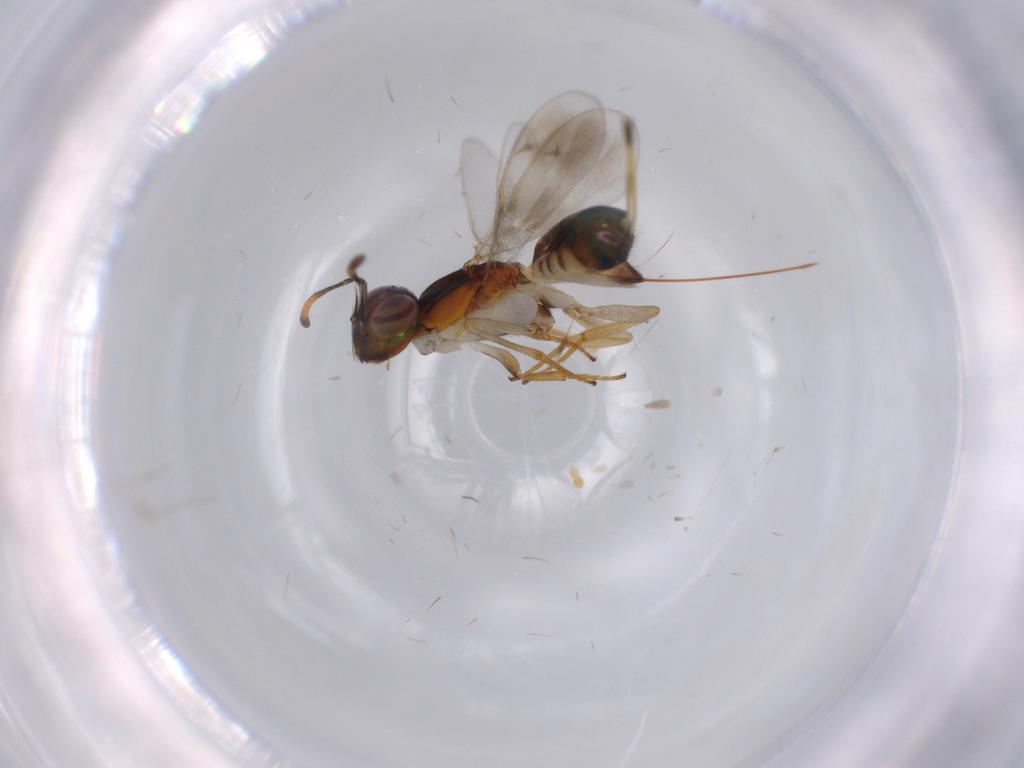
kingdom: Animalia
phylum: Arthropoda
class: Insecta
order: Hymenoptera
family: Pteromalidae
